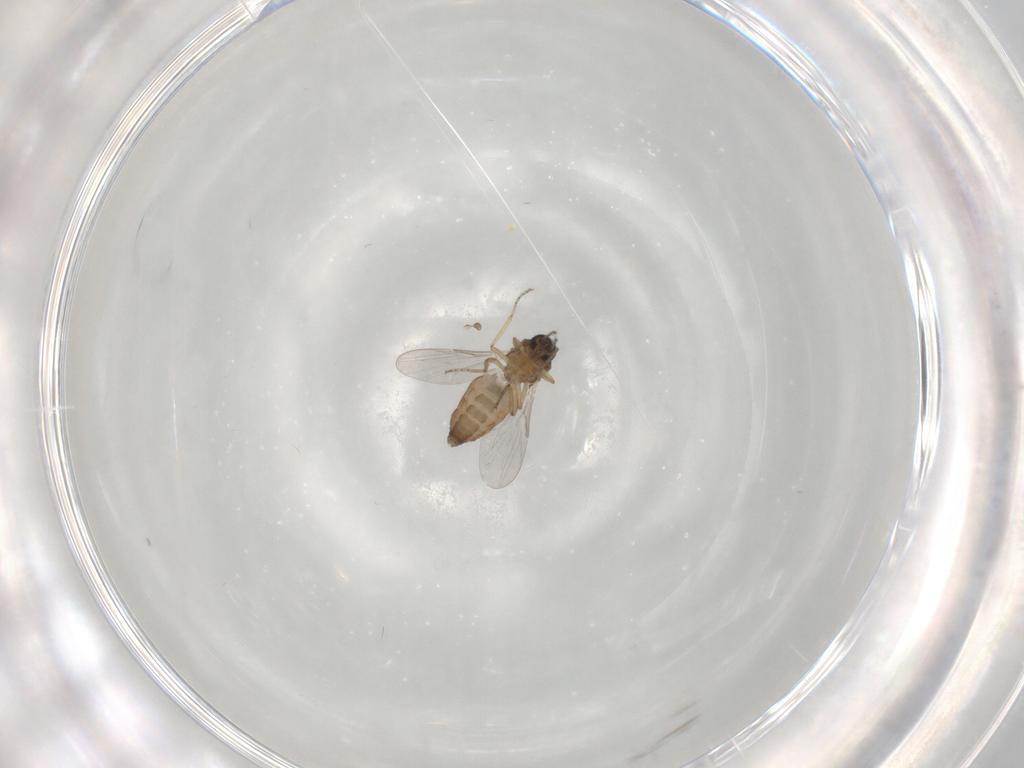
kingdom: Animalia
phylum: Arthropoda
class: Insecta
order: Diptera
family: Ceratopogonidae
